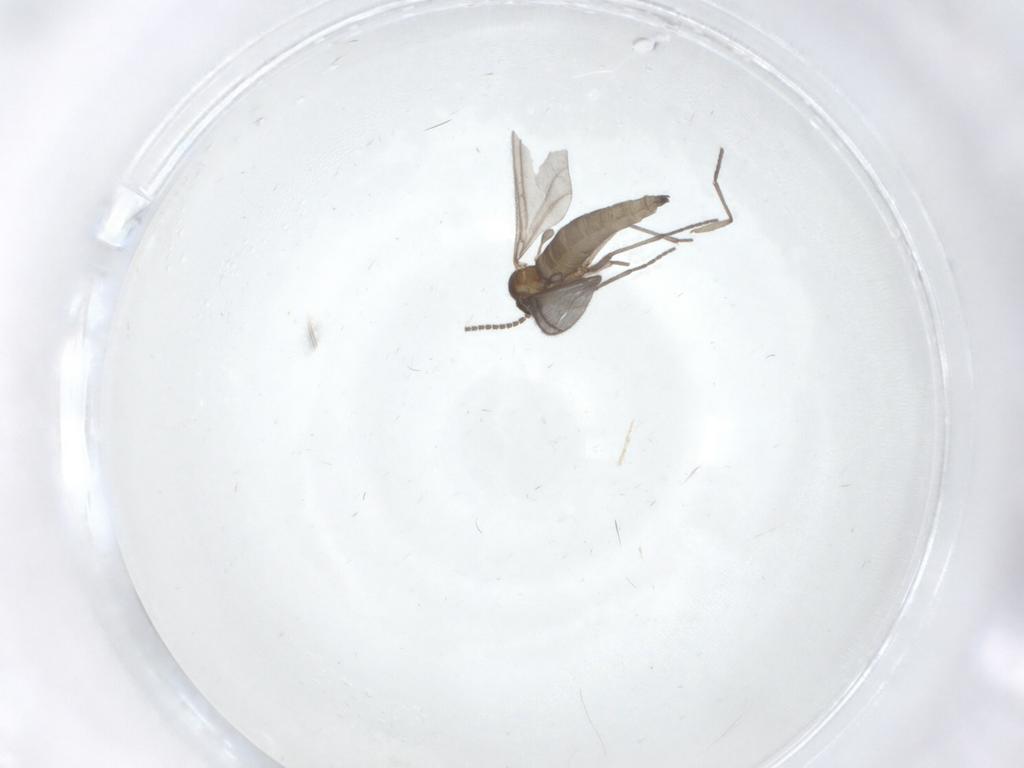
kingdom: Animalia
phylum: Arthropoda
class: Insecta
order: Diptera
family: Sciaridae
